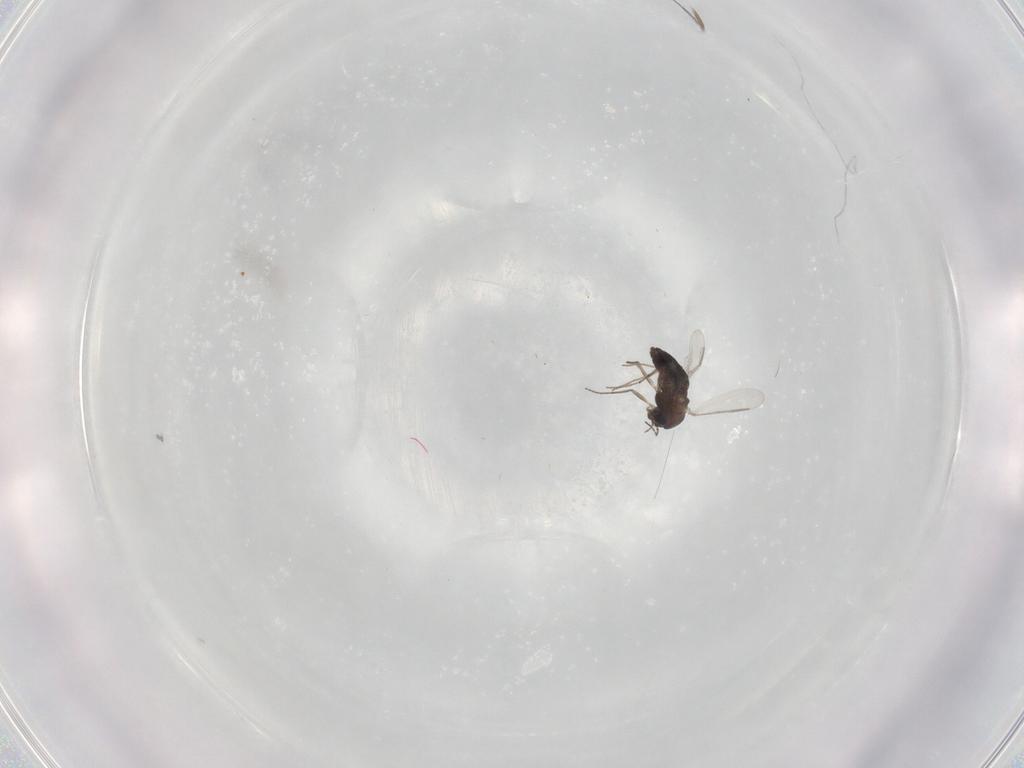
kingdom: Animalia
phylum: Arthropoda
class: Insecta
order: Diptera
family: Chironomidae
